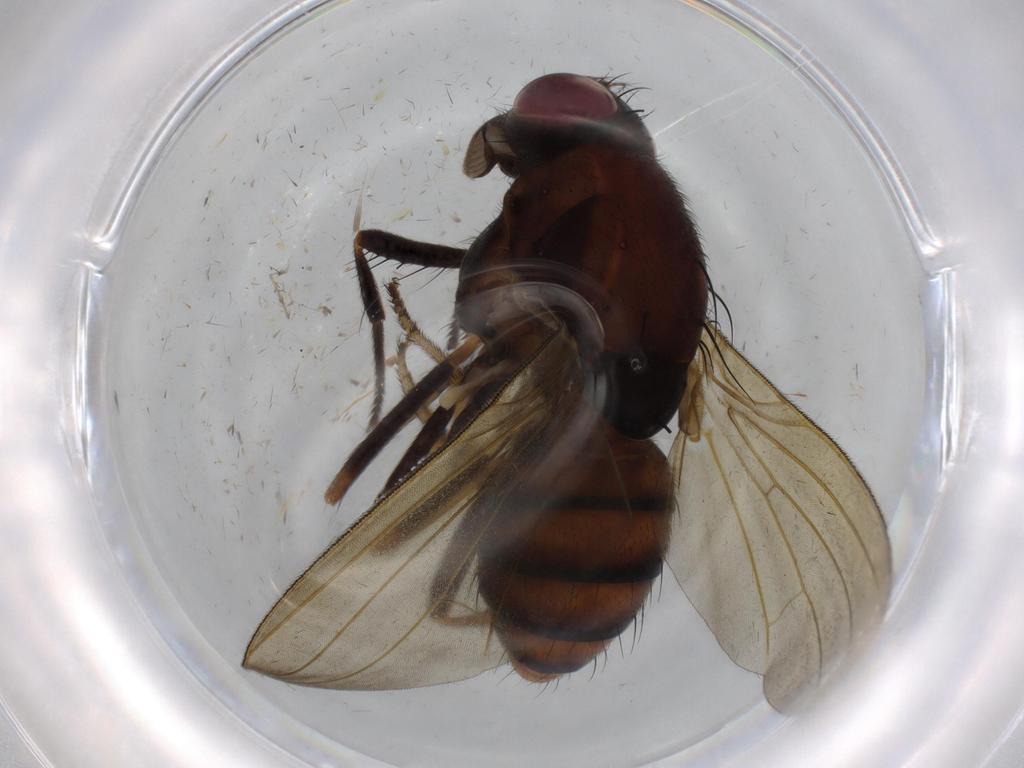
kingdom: Animalia
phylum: Arthropoda
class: Insecta
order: Diptera
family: Cecidomyiidae
